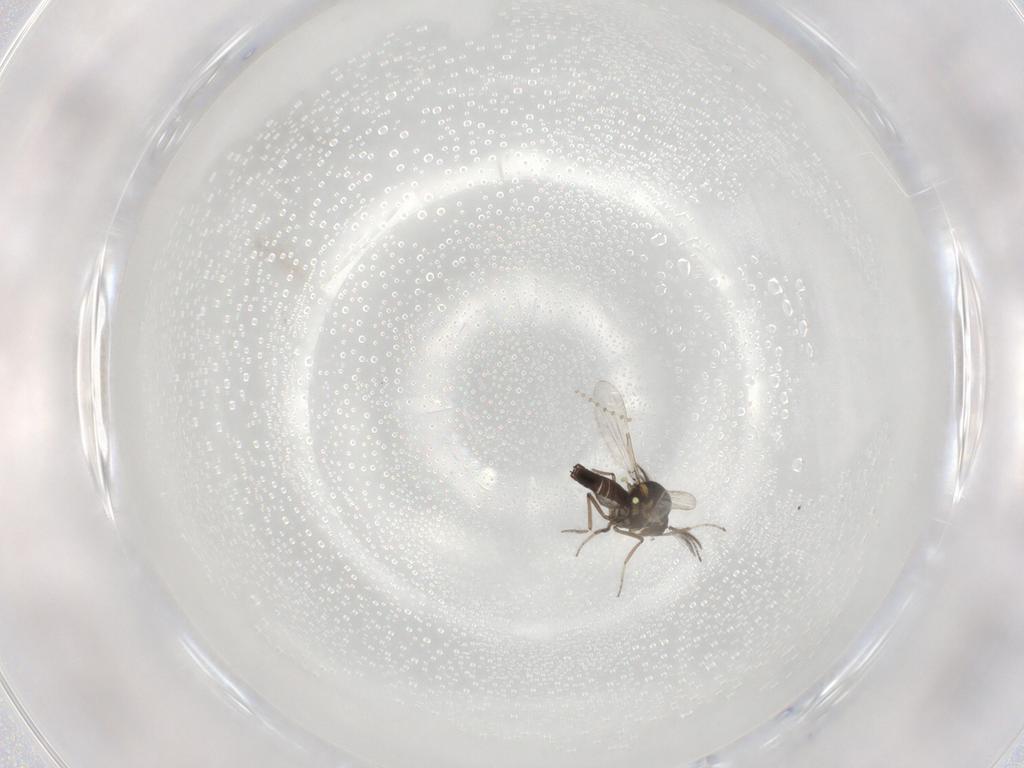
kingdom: Animalia
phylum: Arthropoda
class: Insecta
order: Diptera
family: Ceratopogonidae
